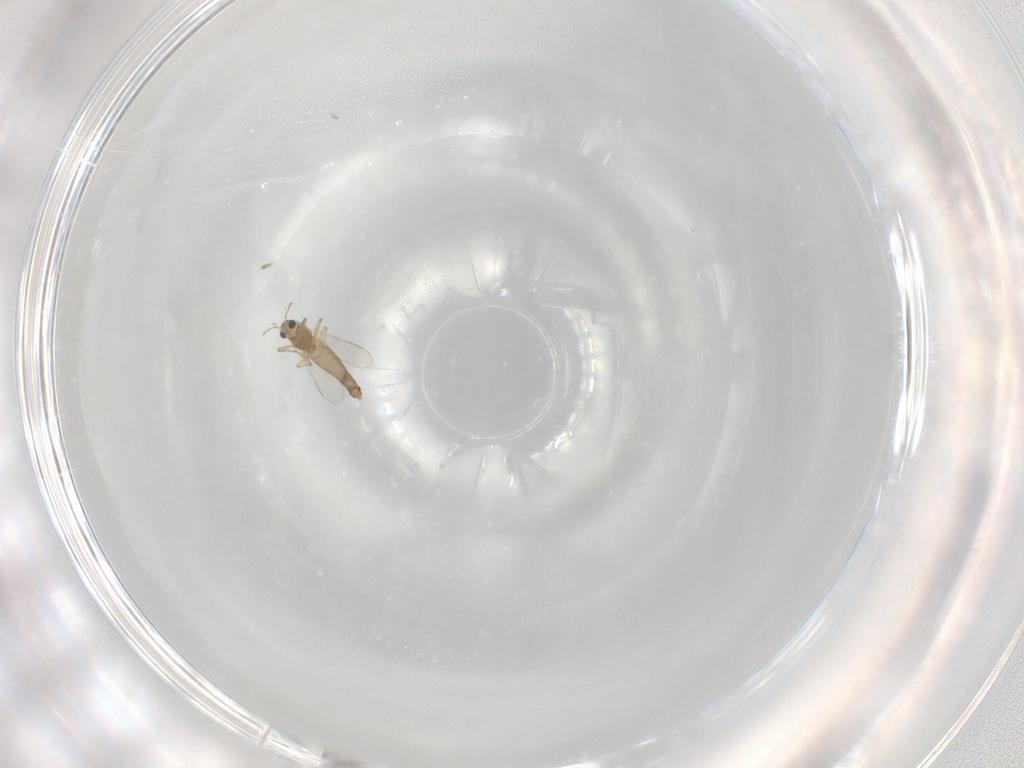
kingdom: Animalia
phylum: Arthropoda
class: Insecta
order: Diptera
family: Chironomidae
